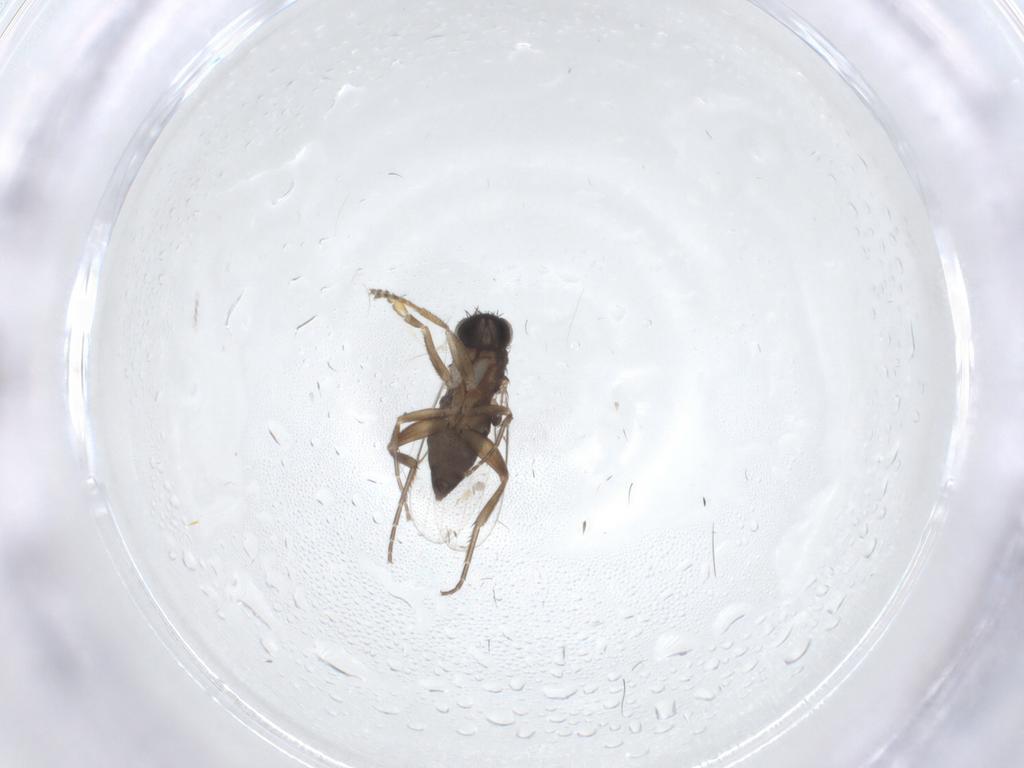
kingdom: Animalia
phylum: Arthropoda
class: Insecta
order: Diptera
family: Phoridae
